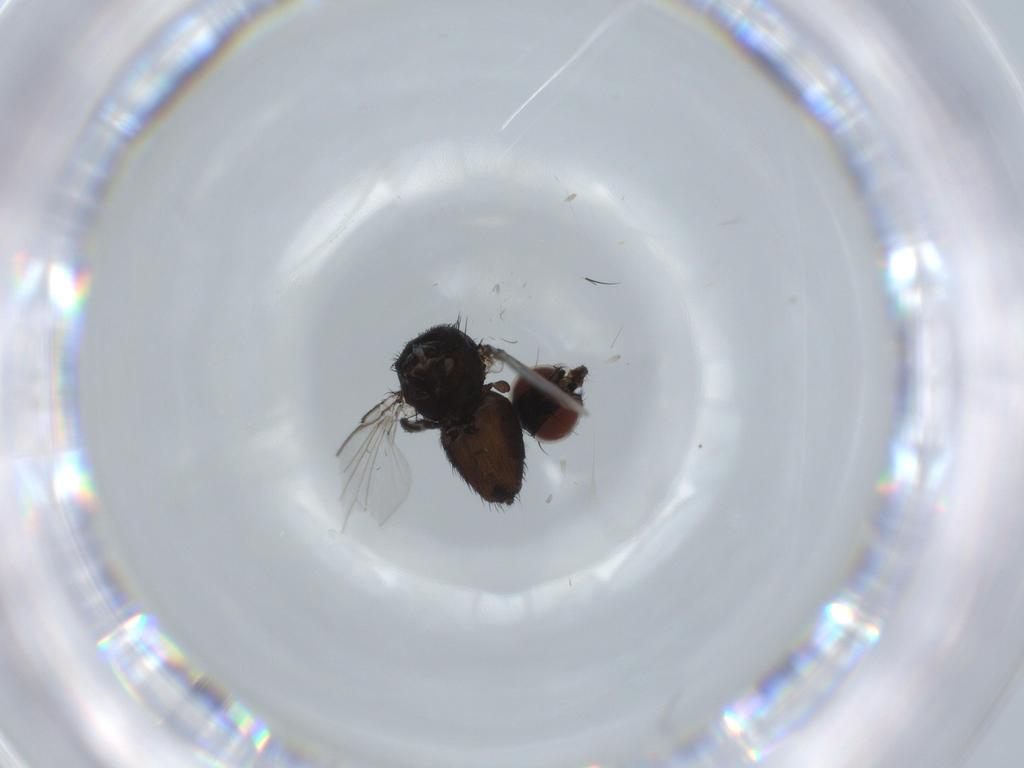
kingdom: Animalia
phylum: Arthropoda
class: Insecta
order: Diptera
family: Milichiidae
